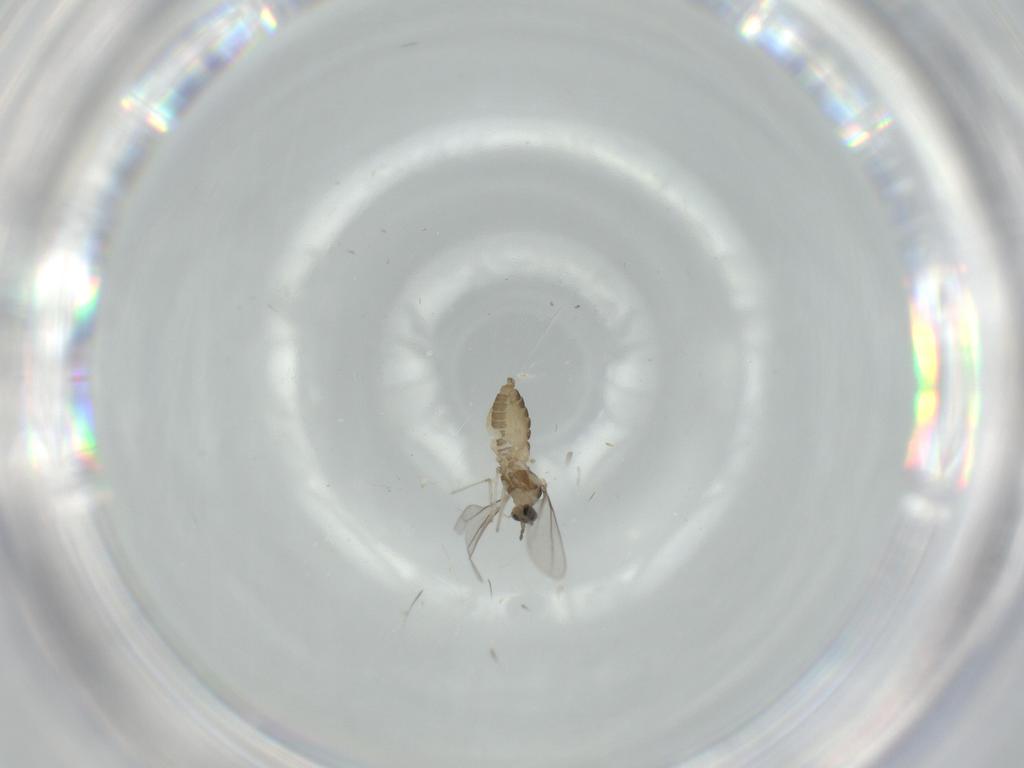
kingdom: Animalia
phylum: Arthropoda
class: Insecta
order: Diptera
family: Cecidomyiidae
